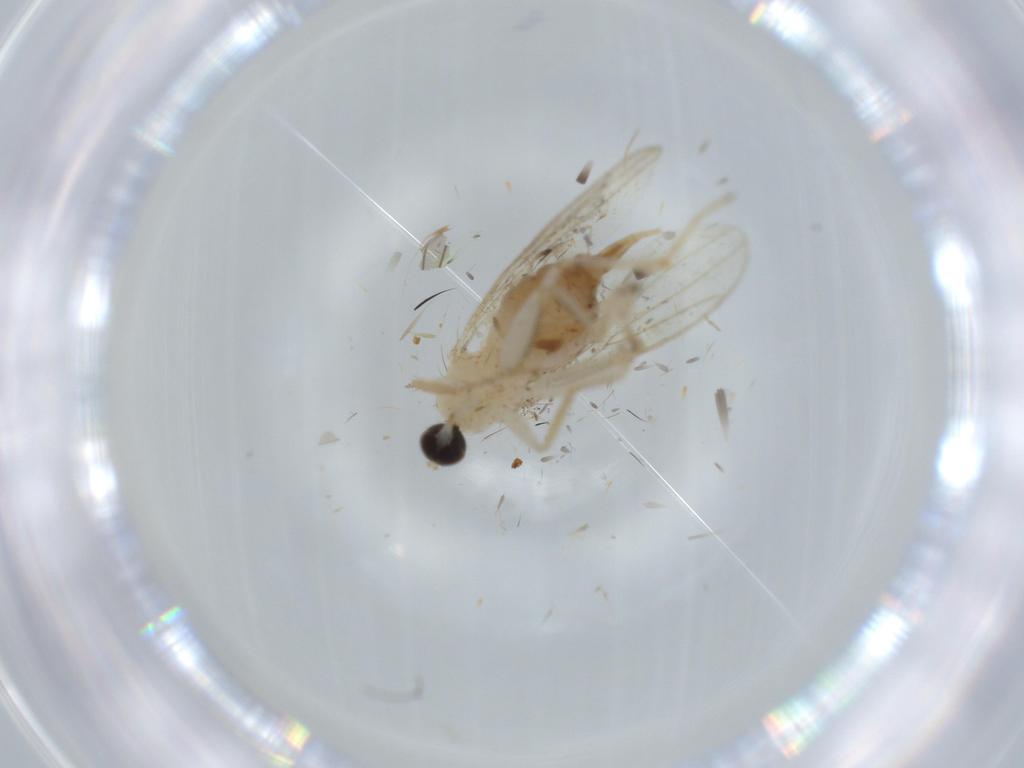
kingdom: Animalia
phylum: Arthropoda
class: Insecta
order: Diptera
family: Hybotidae
